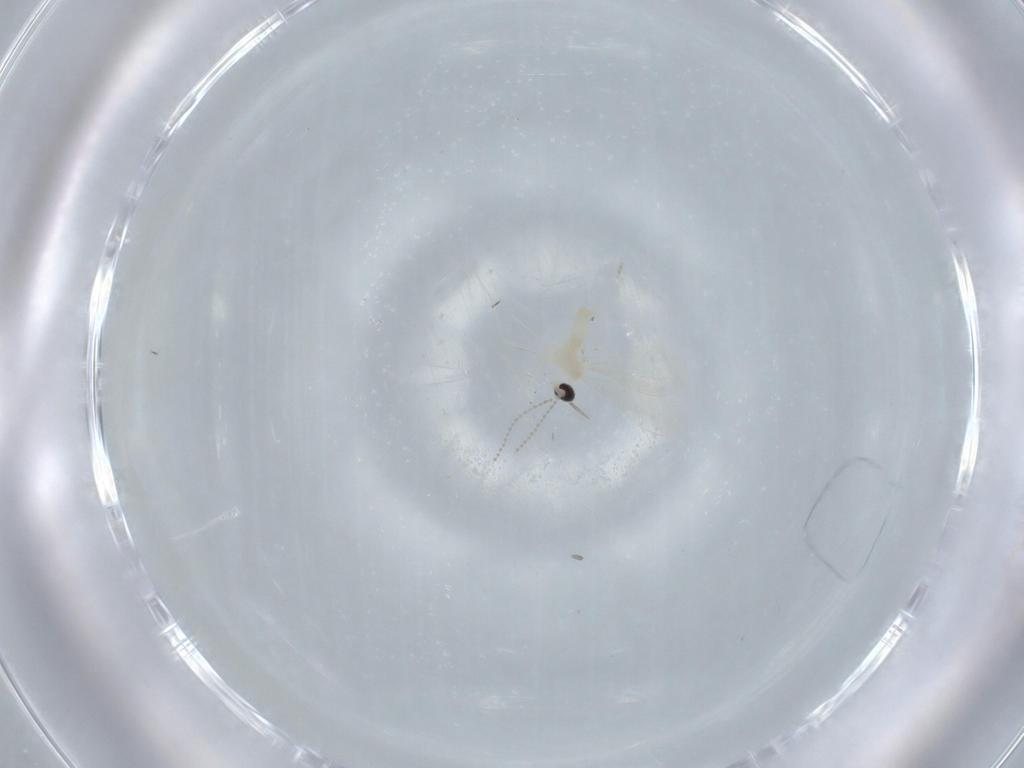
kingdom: Animalia
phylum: Arthropoda
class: Insecta
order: Diptera
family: Cecidomyiidae
